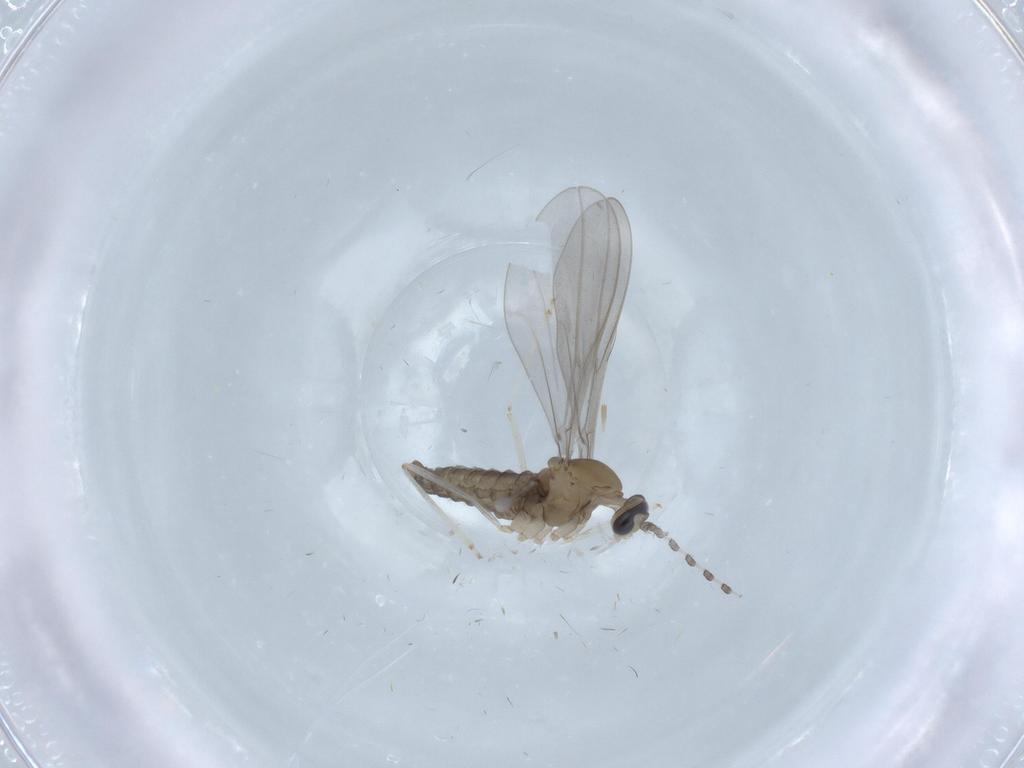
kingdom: Animalia
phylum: Arthropoda
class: Insecta
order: Diptera
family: Cecidomyiidae
